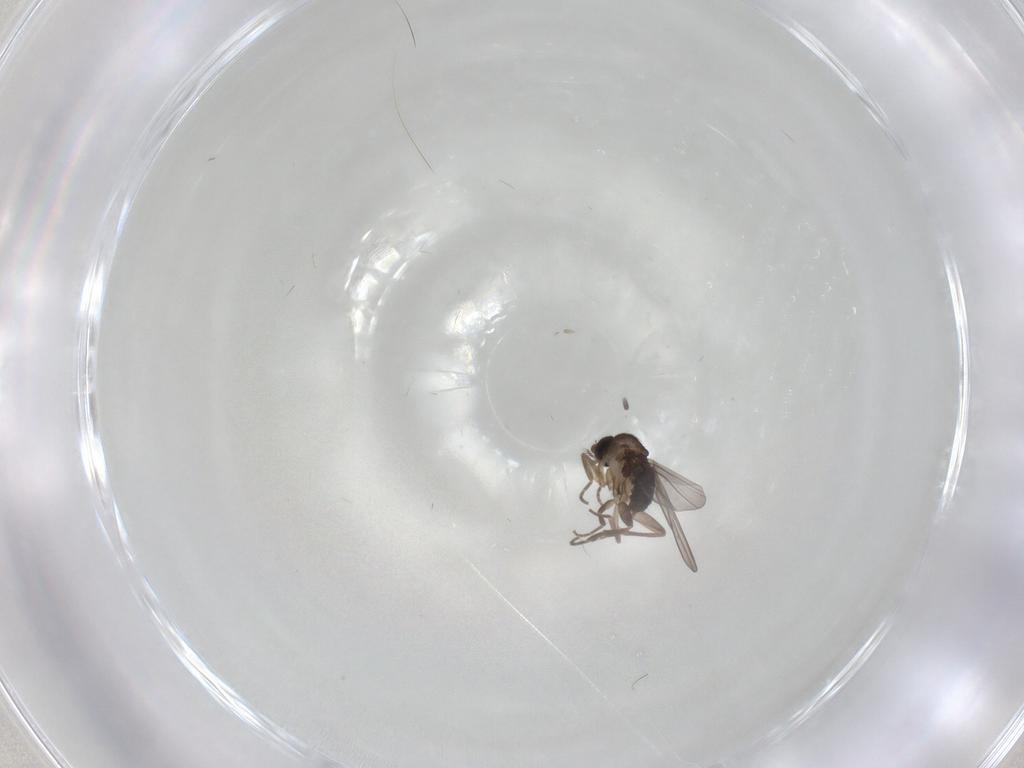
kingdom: Animalia
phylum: Arthropoda
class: Insecta
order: Diptera
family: Phoridae
